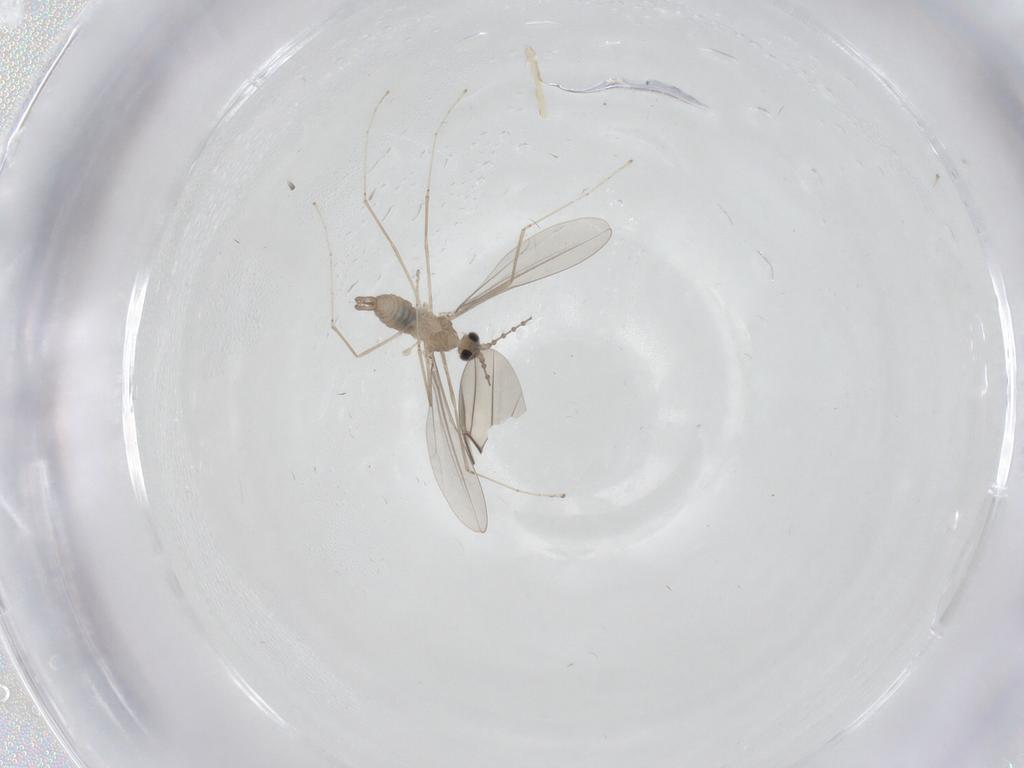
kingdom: Animalia
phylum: Arthropoda
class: Insecta
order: Diptera
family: Cecidomyiidae
